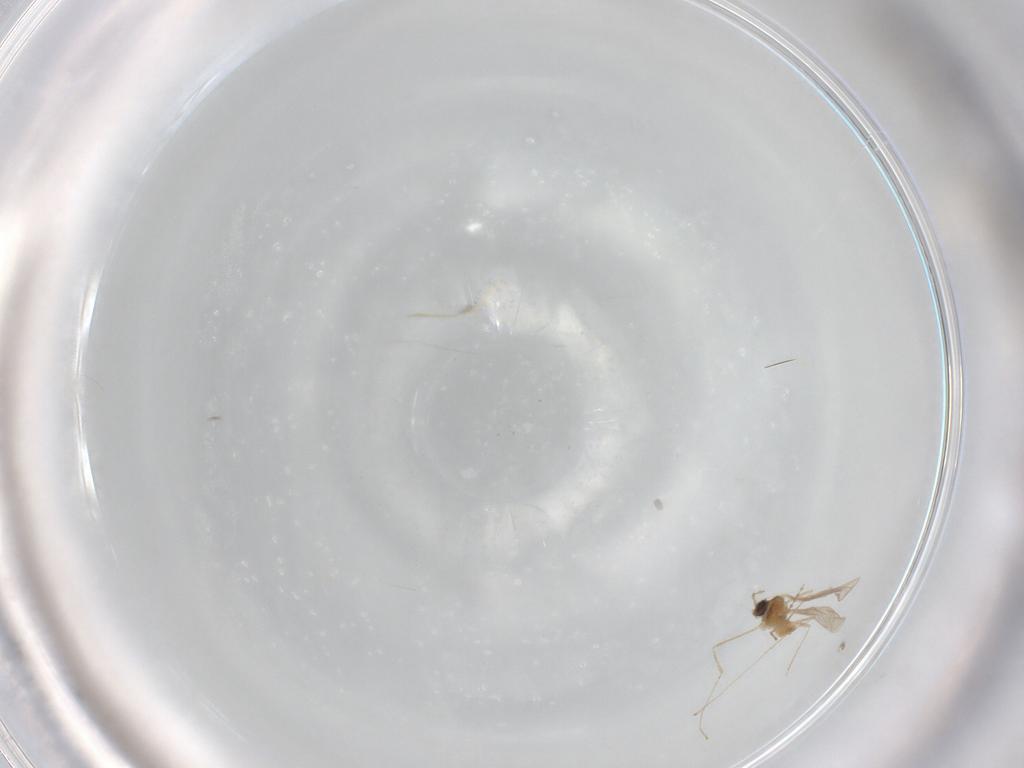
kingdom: Animalia
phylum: Arthropoda
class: Insecta
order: Diptera
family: Cecidomyiidae
